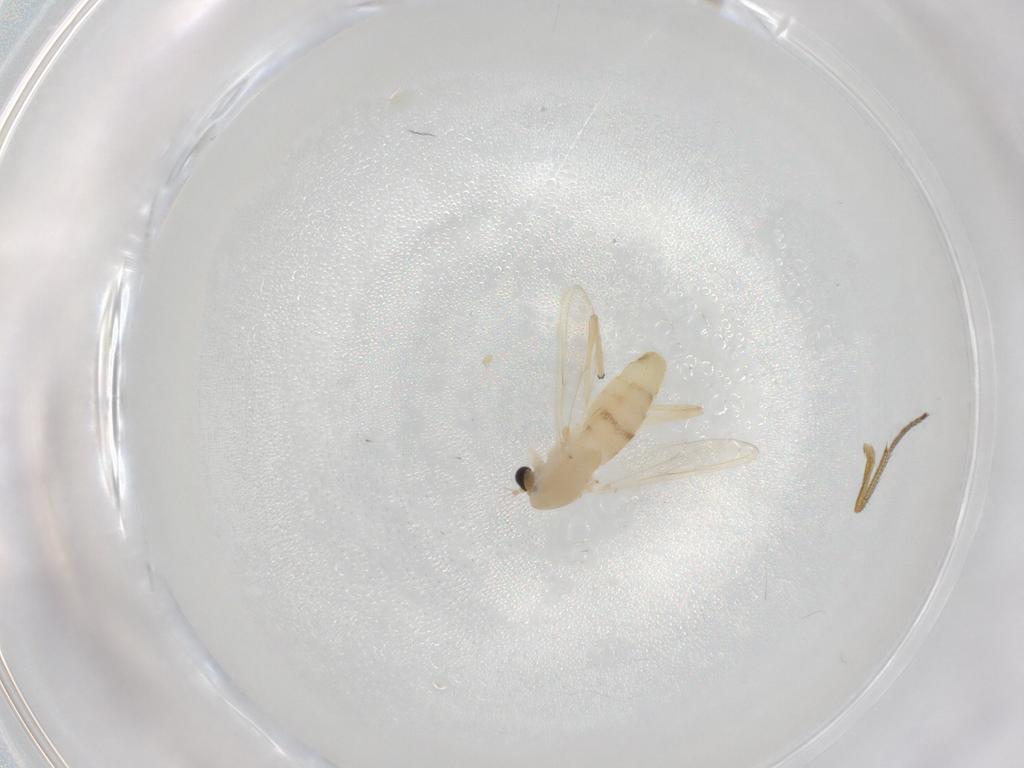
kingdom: Animalia
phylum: Arthropoda
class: Insecta
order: Diptera
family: Chironomidae
